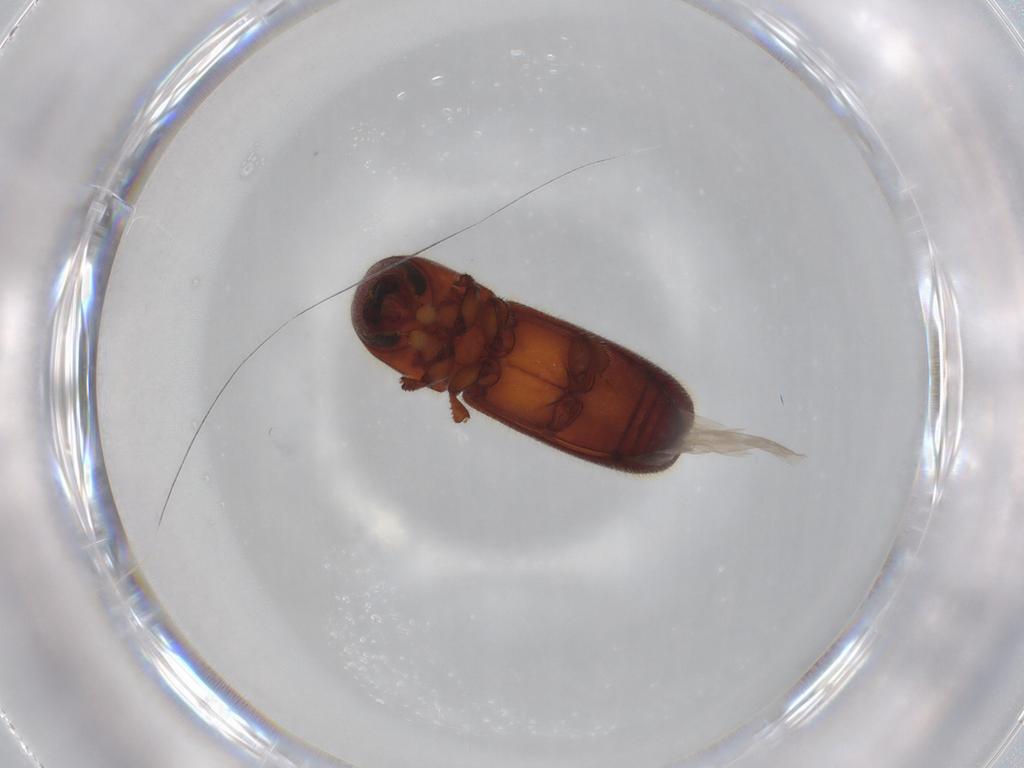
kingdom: Animalia
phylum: Arthropoda
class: Insecta
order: Coleoptera
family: Curculionidae
